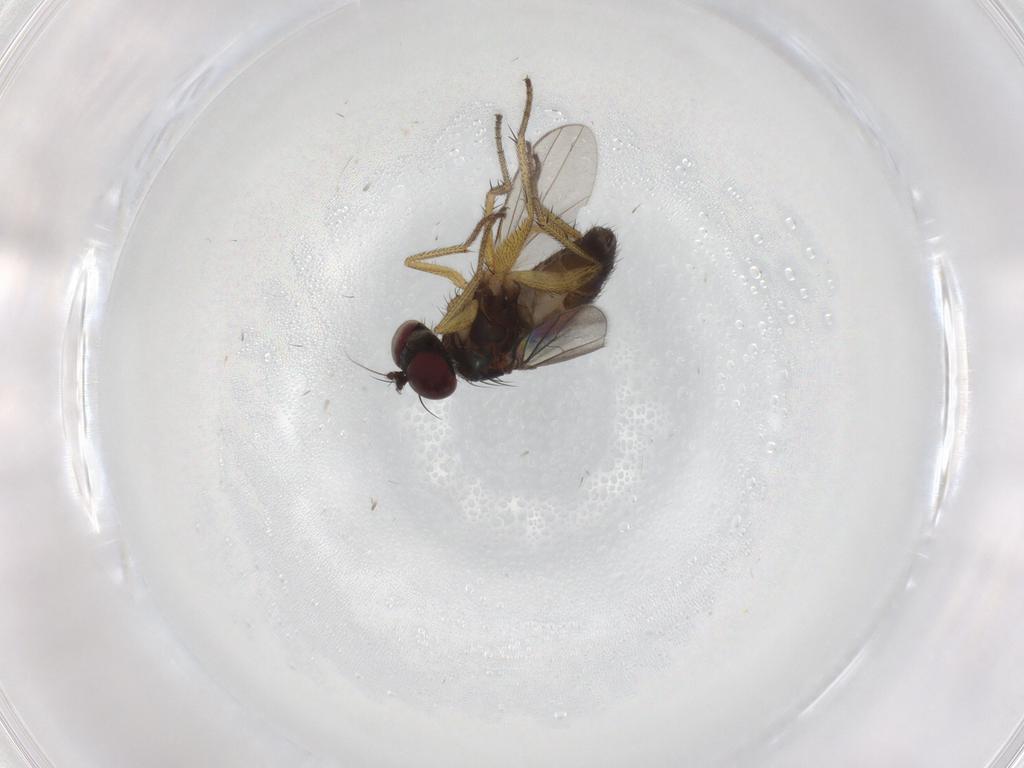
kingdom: Animalia
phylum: Arthropoda
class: Insecta
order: Diptera
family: Dolichopodidae
